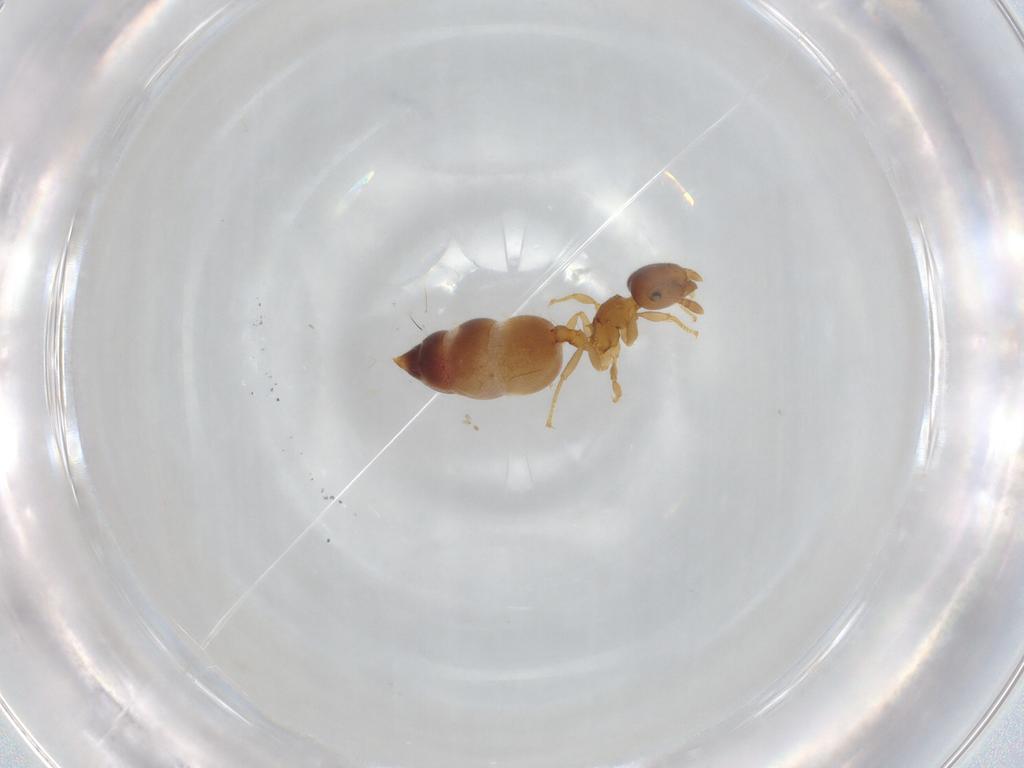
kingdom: Animalia
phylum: Arthropoda
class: Insecta
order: Hymenoptera
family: Formicidae
